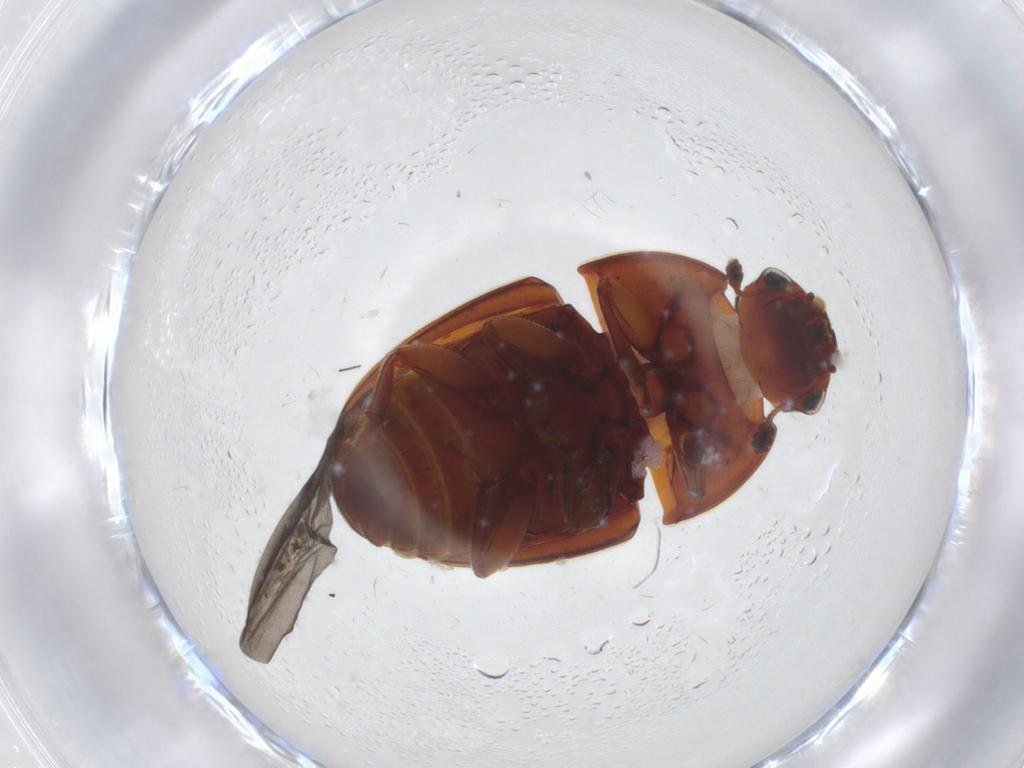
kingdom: Animalia
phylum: Arthropoda
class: Insecta
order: Coleoptera
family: Nitidulidae
